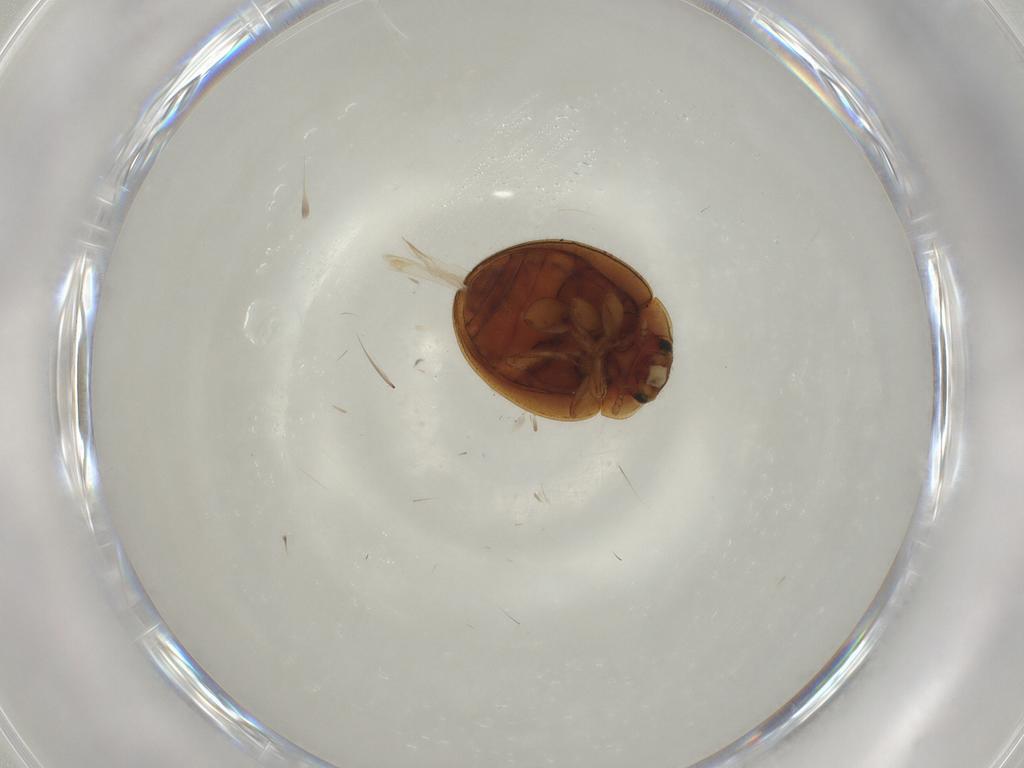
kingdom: Animalia
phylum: Arthropoda
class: Insecta
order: Coleoptera
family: Coccinellidae
